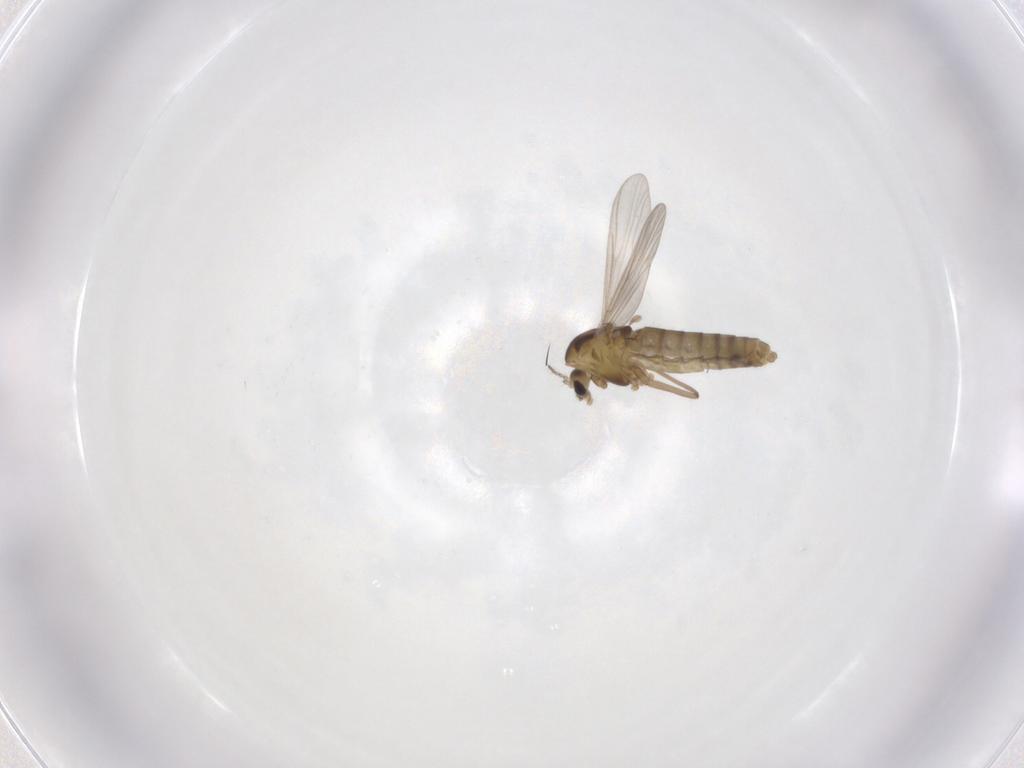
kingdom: Animalia
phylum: Arthropoda
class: Insecta
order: Diptera
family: Chironomidae
